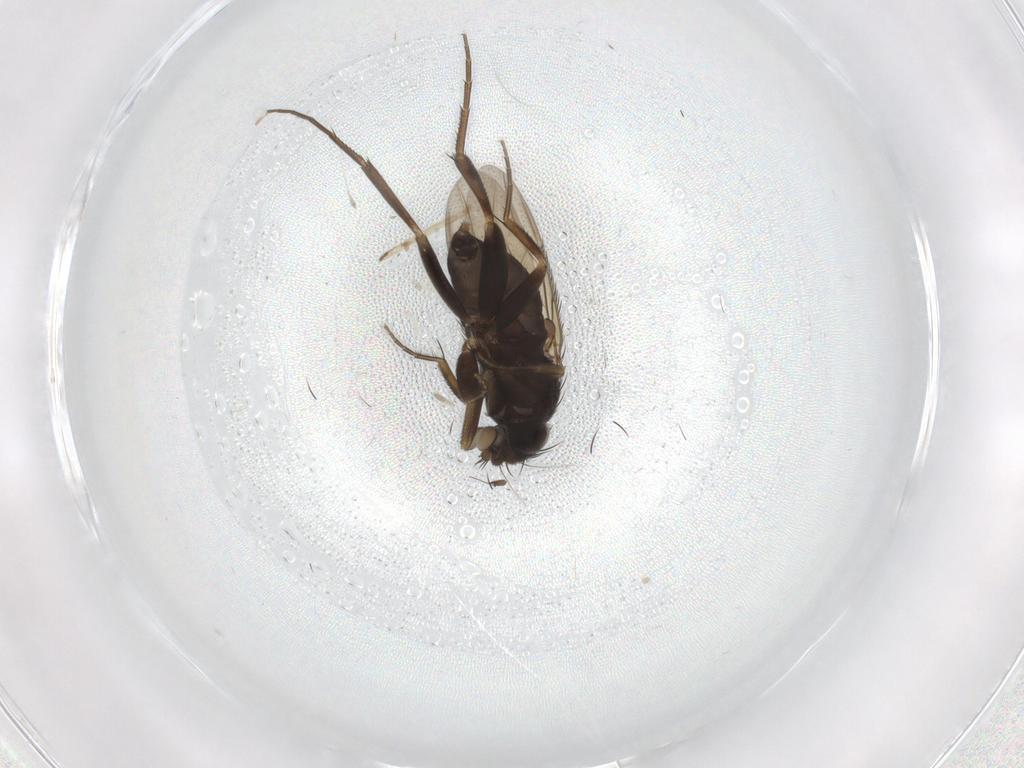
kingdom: Animalia
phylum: Arthropoda
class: Insecta
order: Diptera
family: Phoridae
